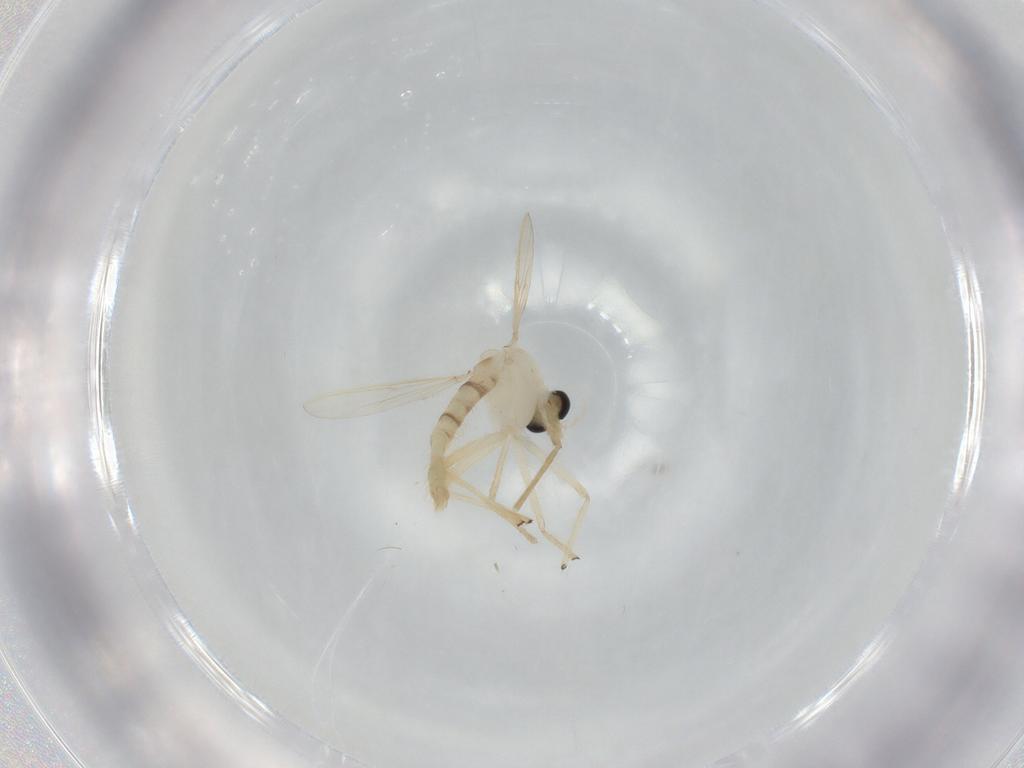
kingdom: Animalia
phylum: Arthropoda
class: Insecta
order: Diptera
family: Chironomidae
